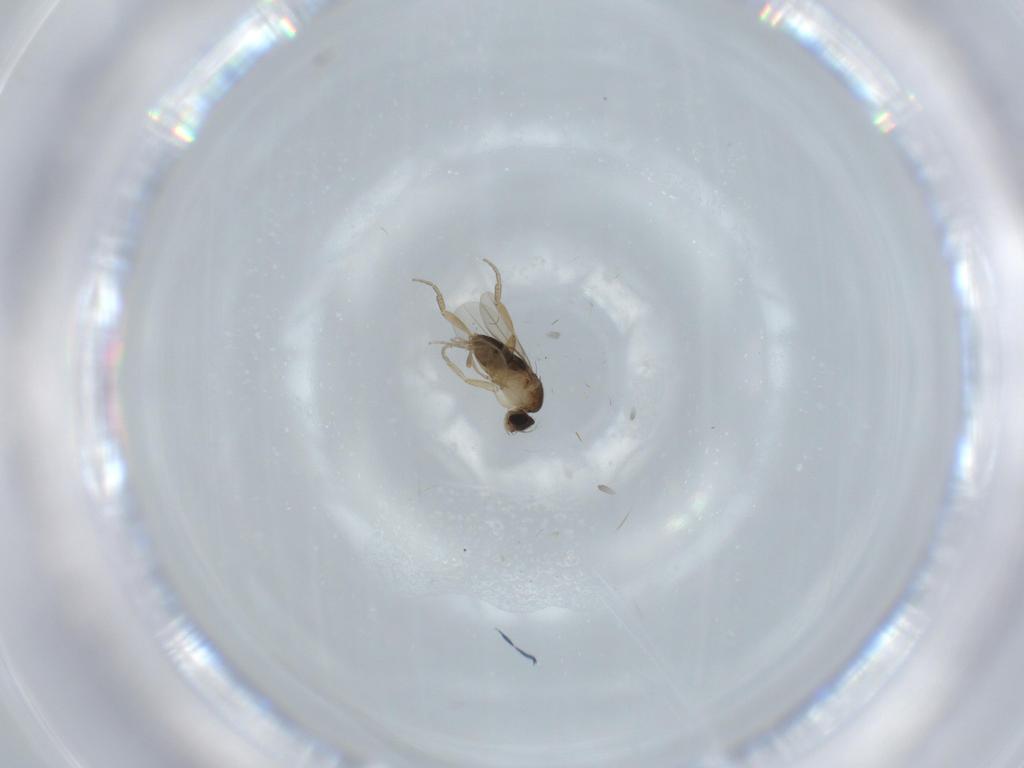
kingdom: Animalia
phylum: Arthropoda
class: Insecta
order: Diptera
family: Phoridae
